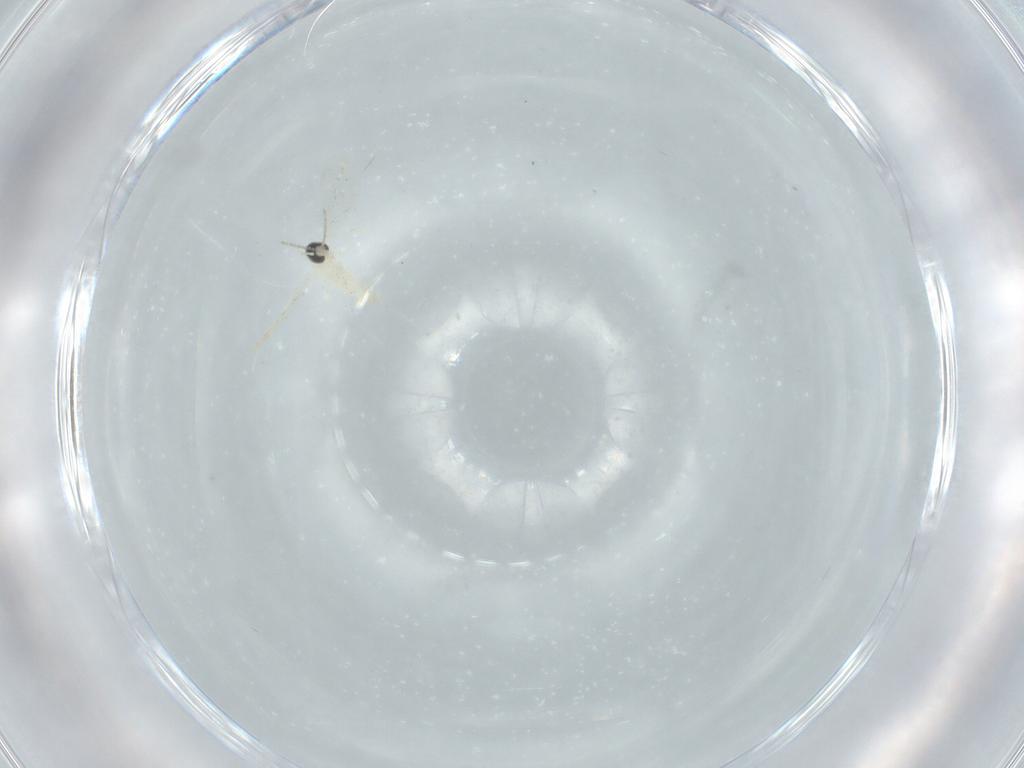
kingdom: Animalia
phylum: Arthropoda
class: Insecta
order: Diptera
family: Cecidomyiidae
